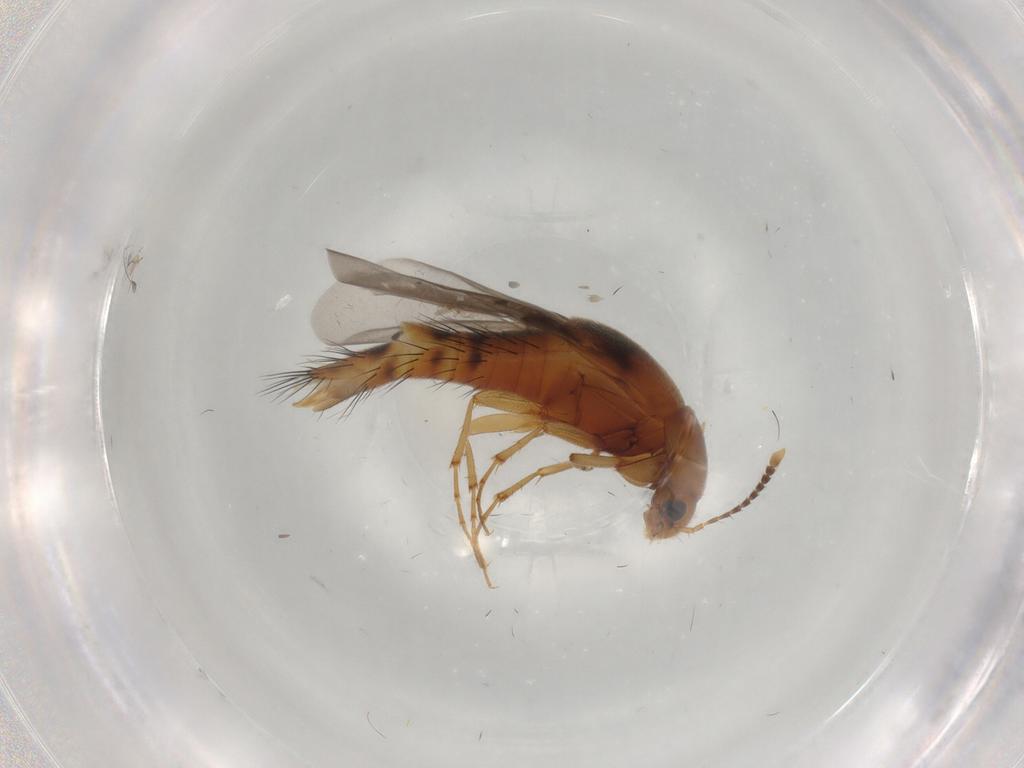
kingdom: Animalia
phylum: Arthropoda
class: Insecta
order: Coleoptera
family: Staphylinidae
